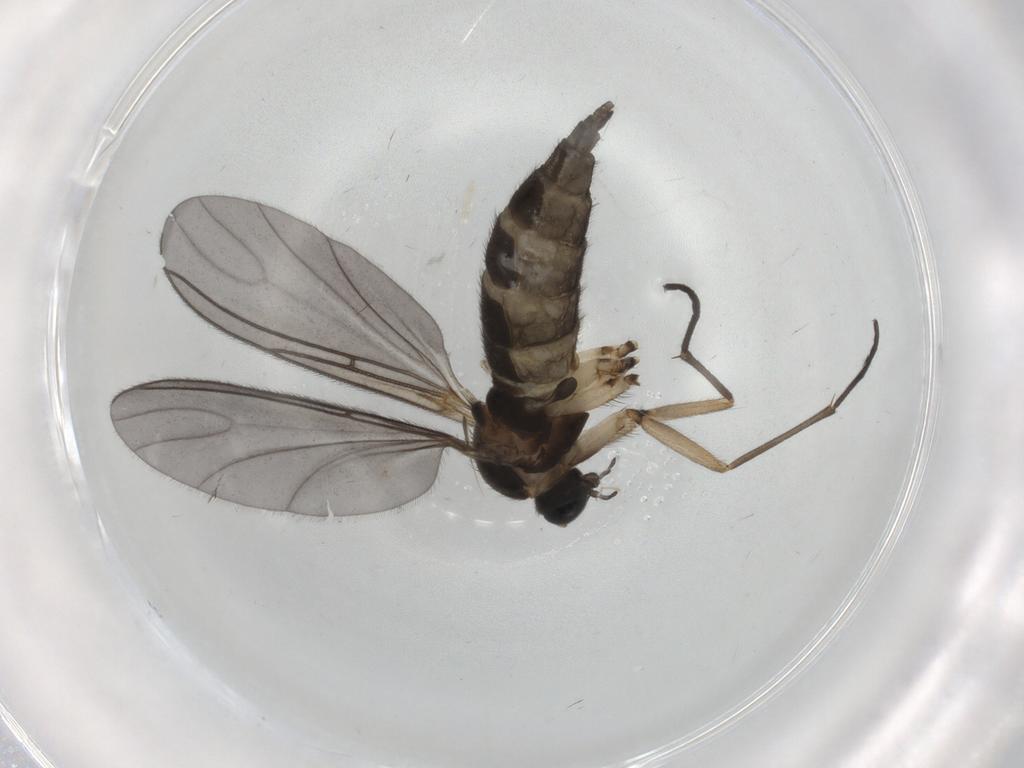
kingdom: Animalia
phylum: Arthropoda
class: Insecta
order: Diptera
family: Sciaridae
